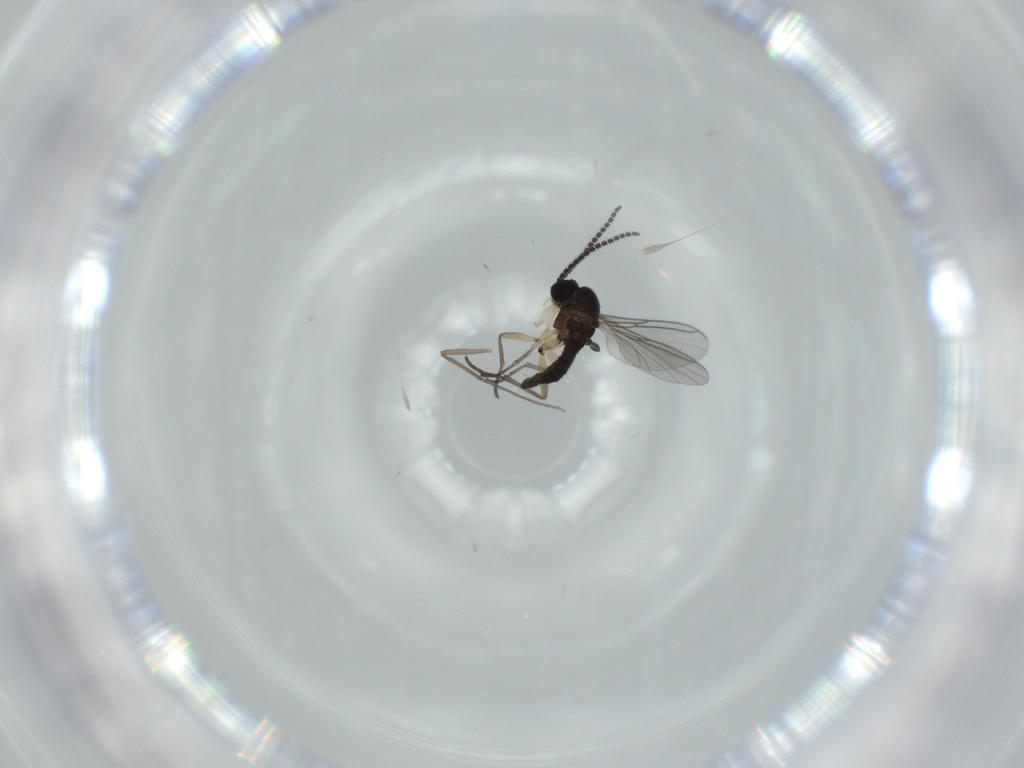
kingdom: Animalia
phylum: Arthropoda
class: Insecta
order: Diptera
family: Sciaridae
